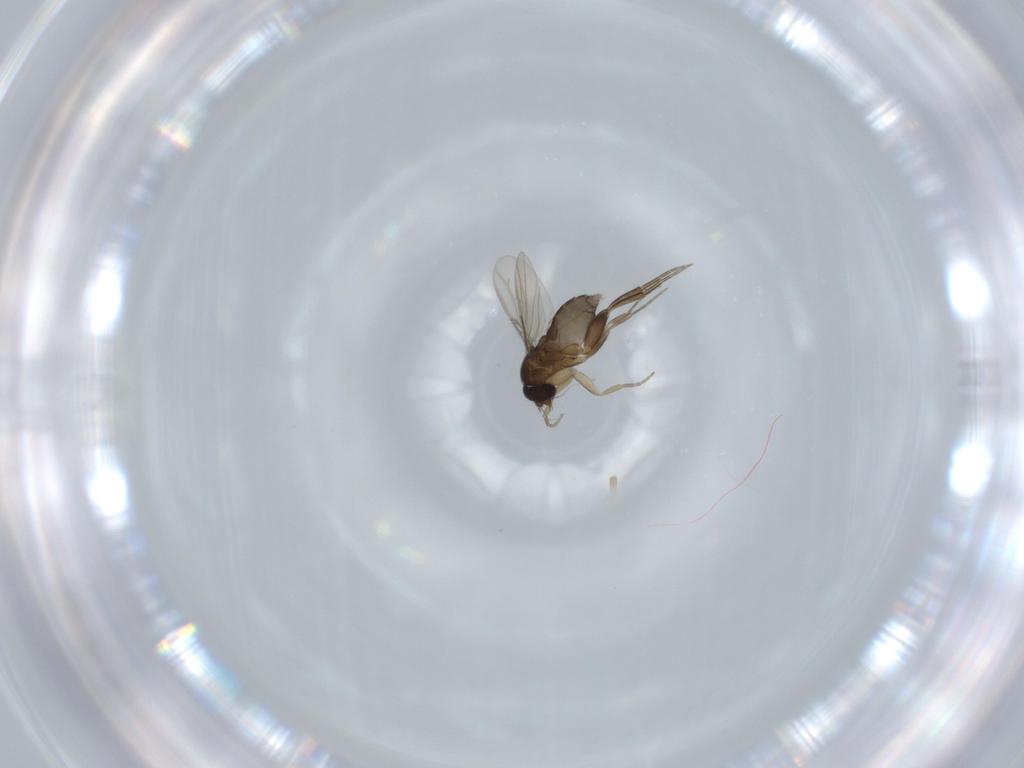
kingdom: Animalia
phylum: Arthropoda
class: Insecta
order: Diptera
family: Phoridae
